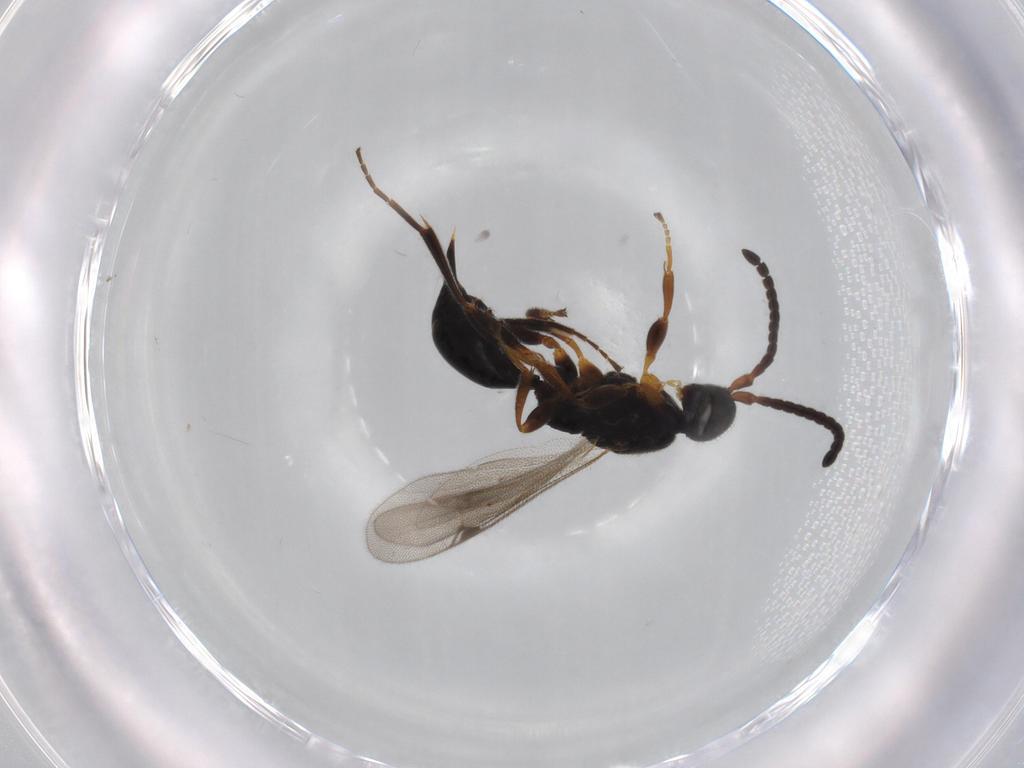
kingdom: Animalia
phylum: Arthropoda
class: Insecta
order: Hymenoptera
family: Proctotrupidae
